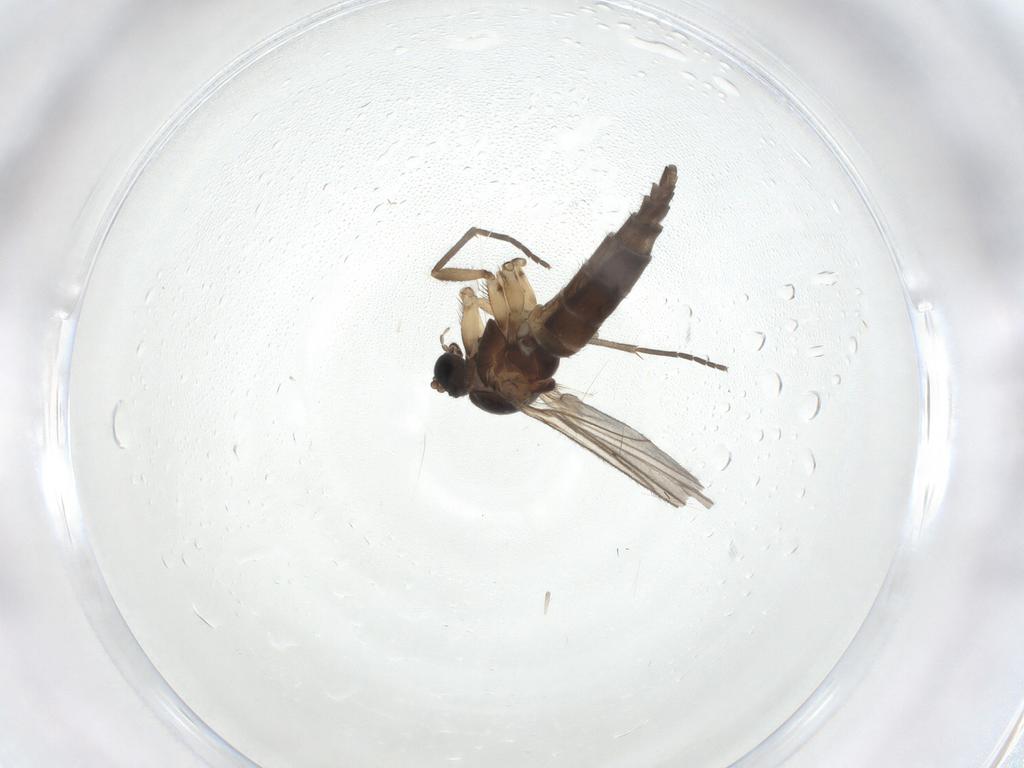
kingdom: Animalia
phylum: Arthropoda
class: Insecta
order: Diptera
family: Sciaridae
